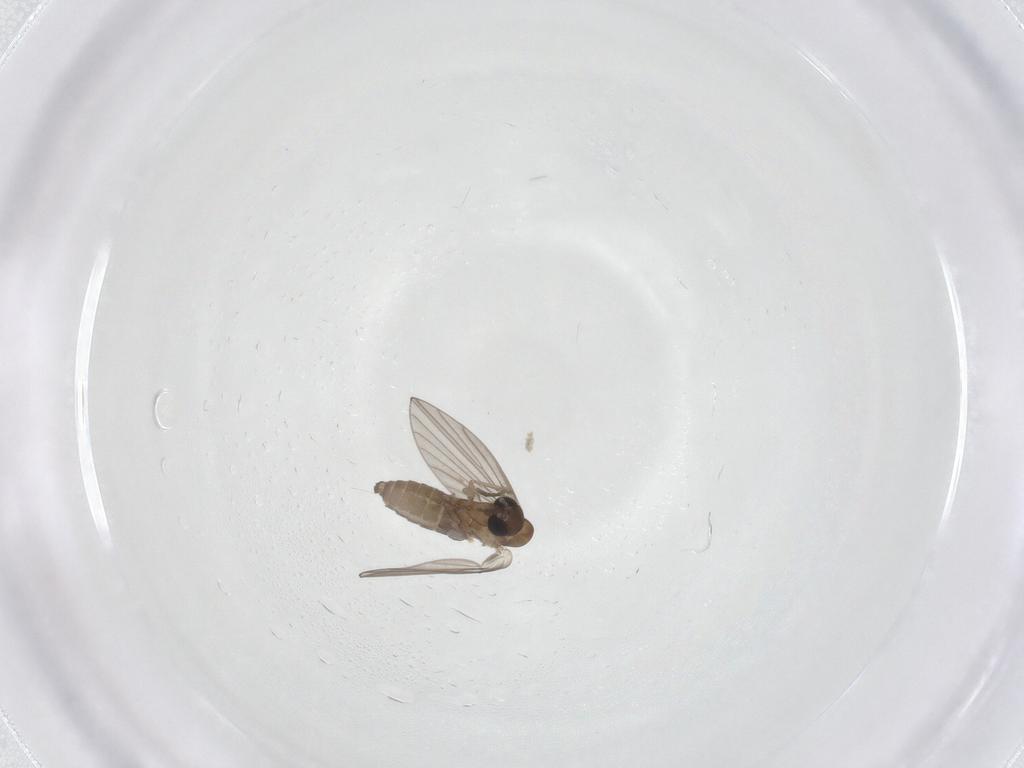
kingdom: Animalia
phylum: Arthropoda
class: Insecta
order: Diptera
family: Psychodidae
